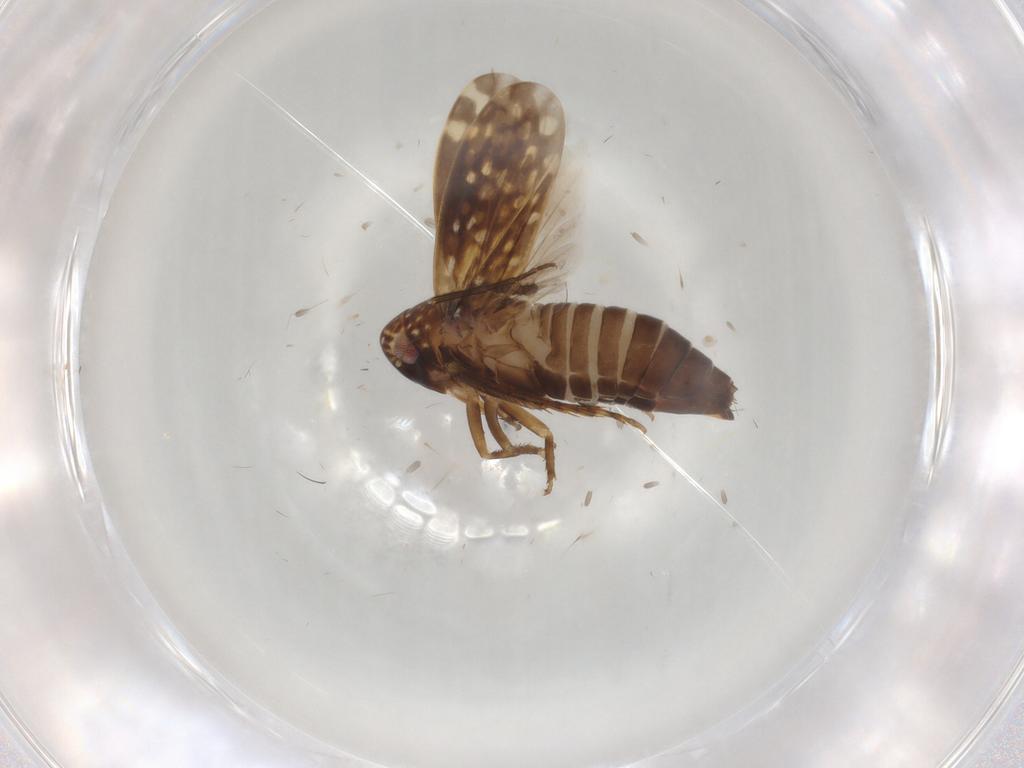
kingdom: Animalia
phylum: Arthropoda
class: Insecta
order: Hemiptera
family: Cicadellidae
